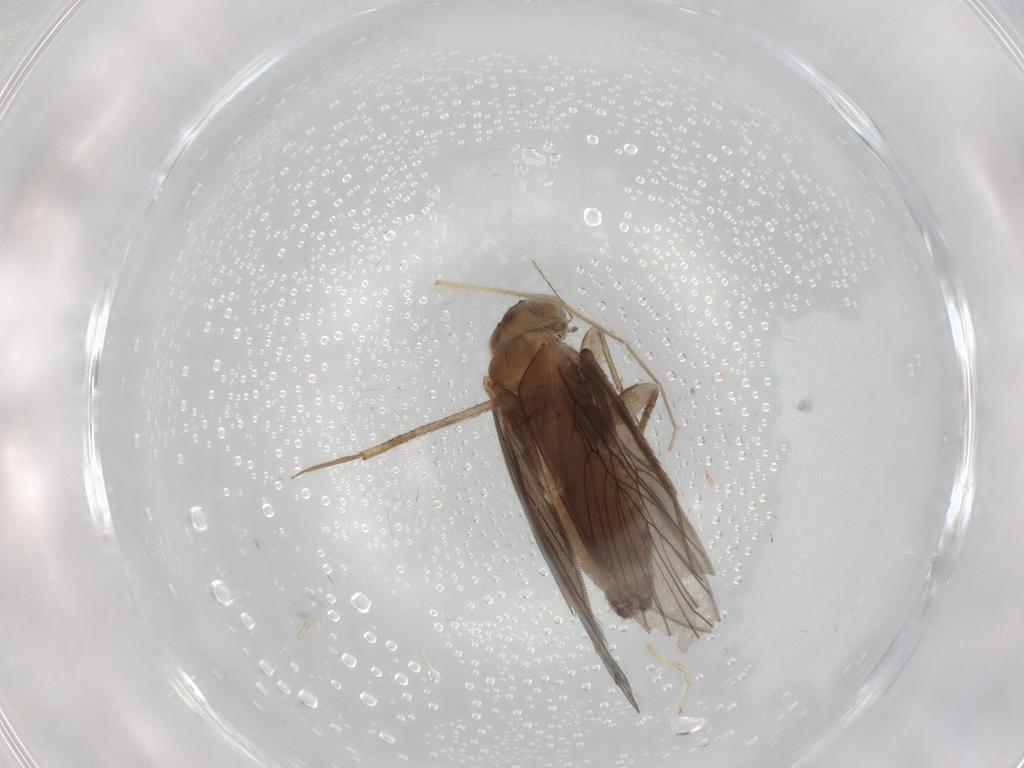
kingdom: Animalia
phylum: Arthropoda
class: Insecta
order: Psocodea
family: Lepidopsocidae
